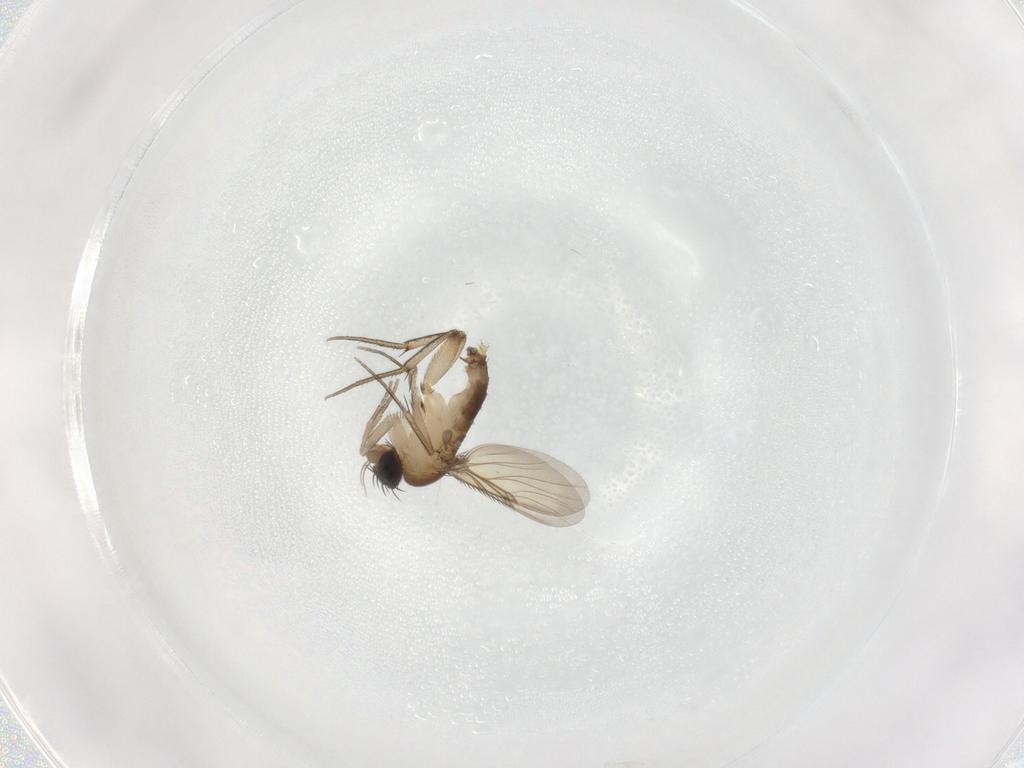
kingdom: Animalia
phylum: Arthropoda
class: Insecta
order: Diptera
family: Phoridae
